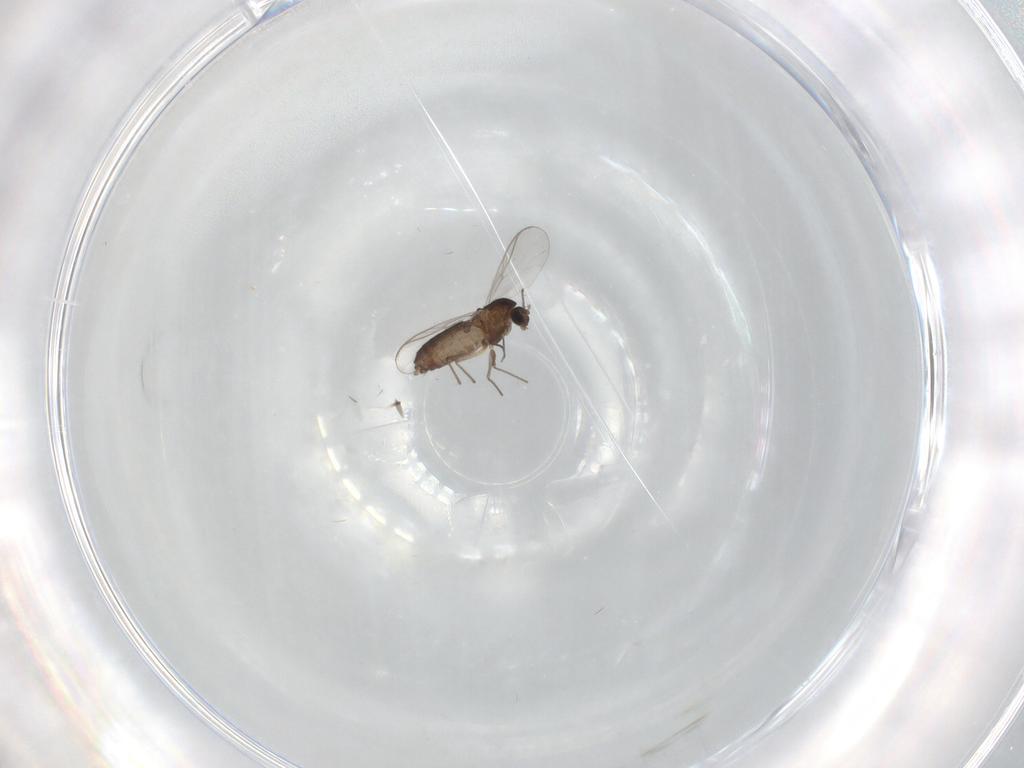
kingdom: Animalia
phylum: Arthropoda
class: Insecta
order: Diptera
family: Chironomidae
